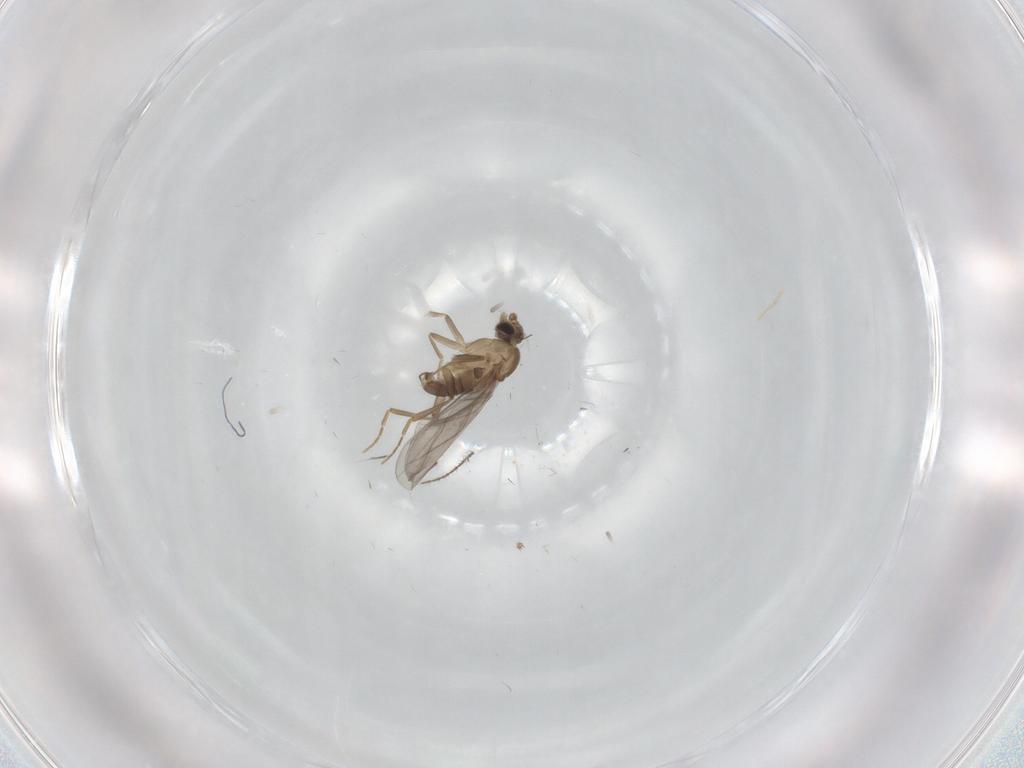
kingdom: Animalia
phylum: Arthropoda
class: Insecta
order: Diptera
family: Ceratopogonidae
